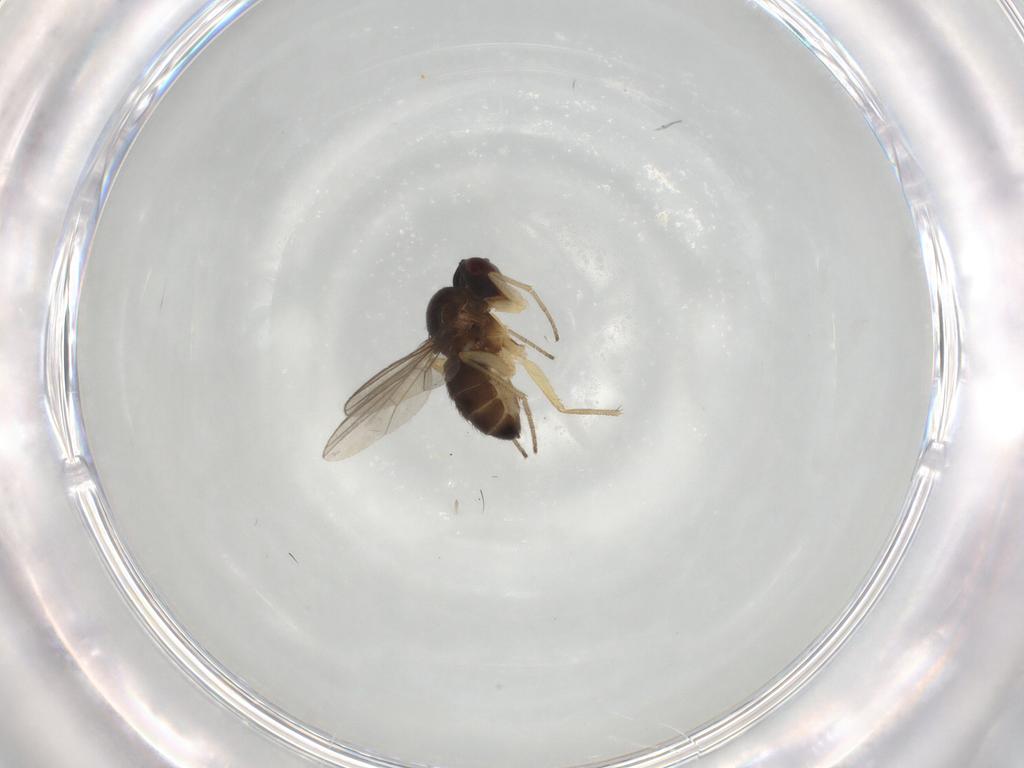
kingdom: Animalia
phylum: Arthropoda
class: Insecta
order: Diptera
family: Dolichopodidae
